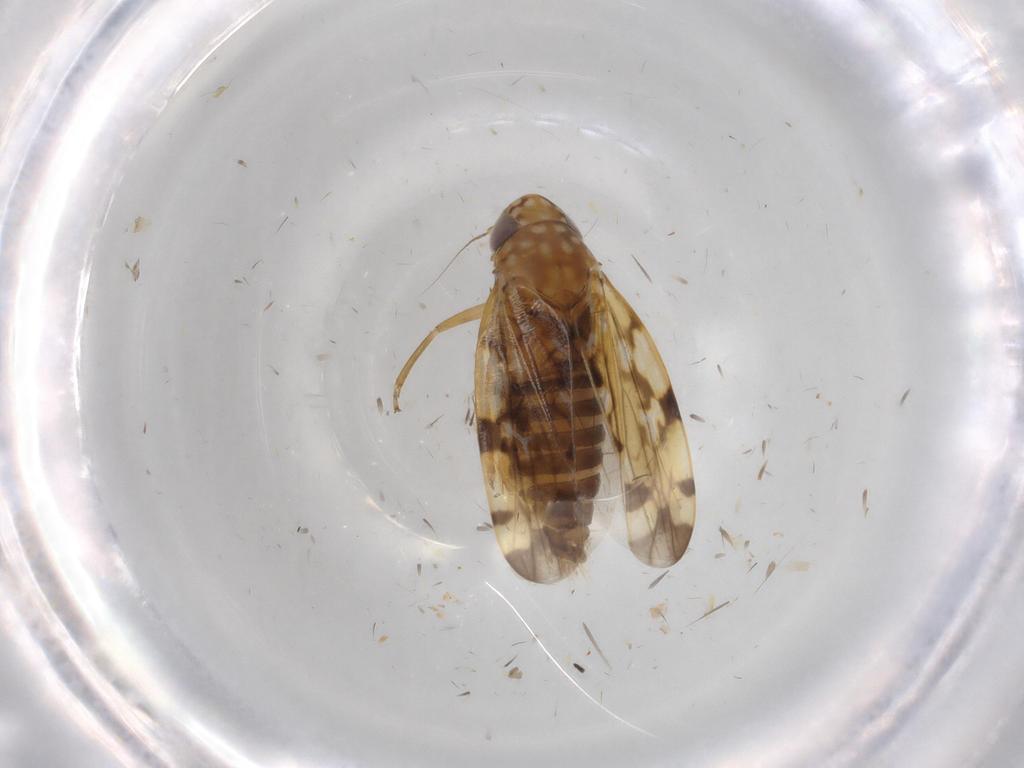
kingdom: Animalia
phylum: Arthropoda
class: Insecta
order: Hemiptera
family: Cicadellidae
